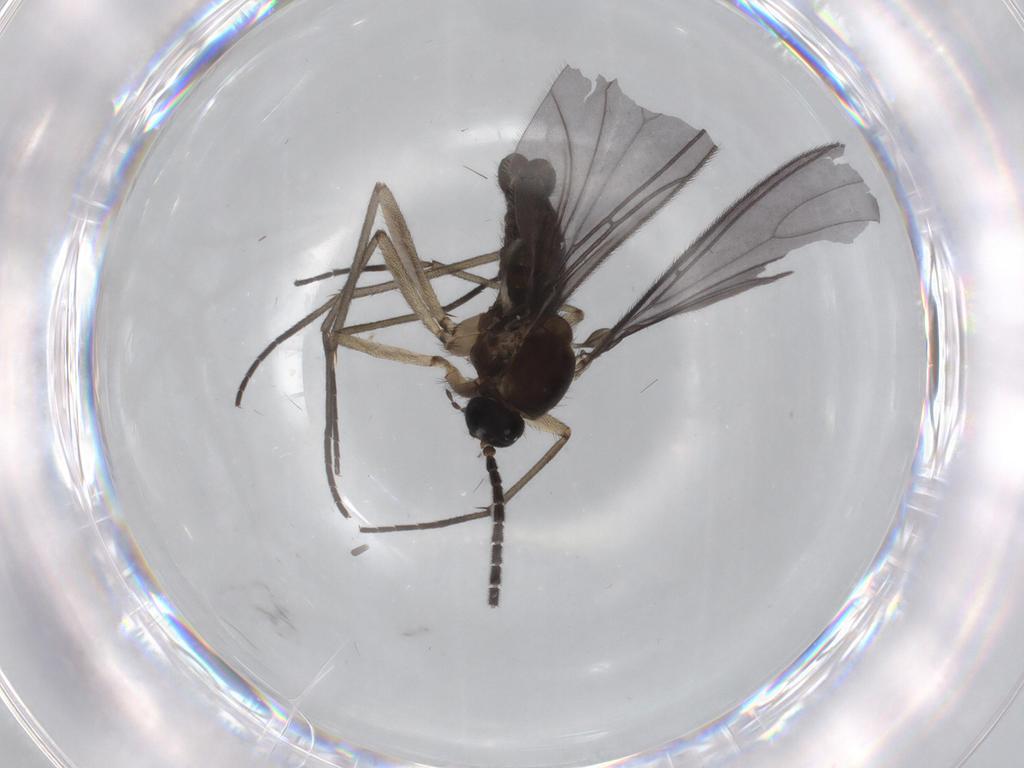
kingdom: Animalia
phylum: Arthropoda
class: Insecta
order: Diptera
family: Sciaridae
